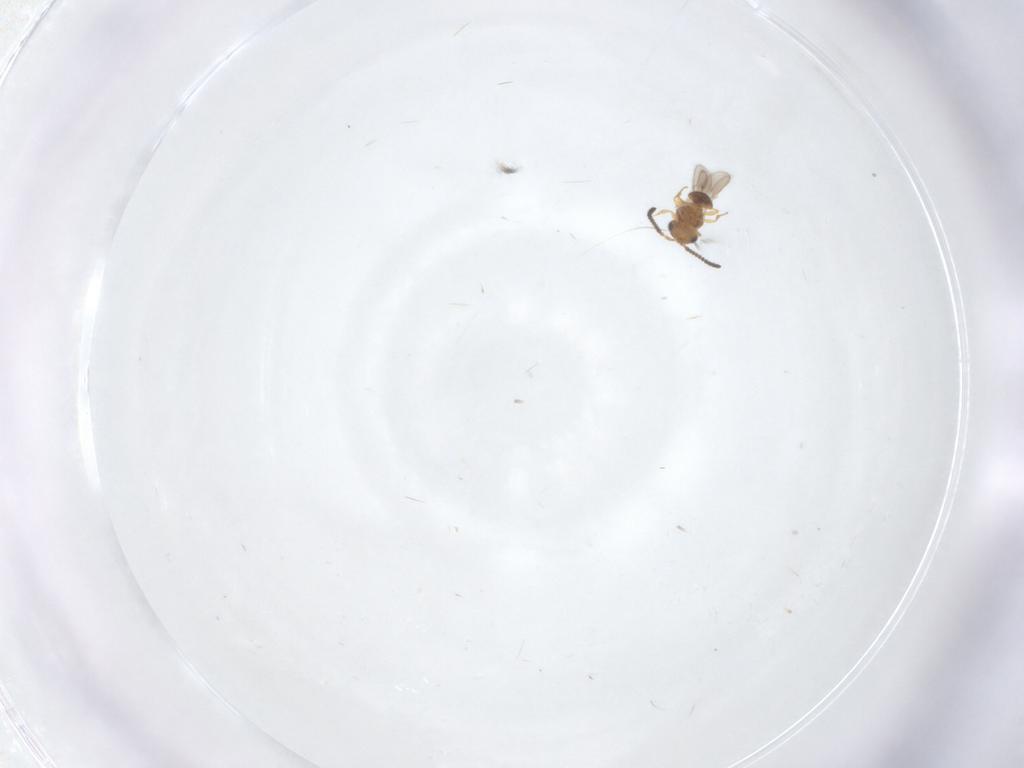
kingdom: Animalia
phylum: Arthropoda
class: Insecta
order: Hymenoptera
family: Scelionidae
